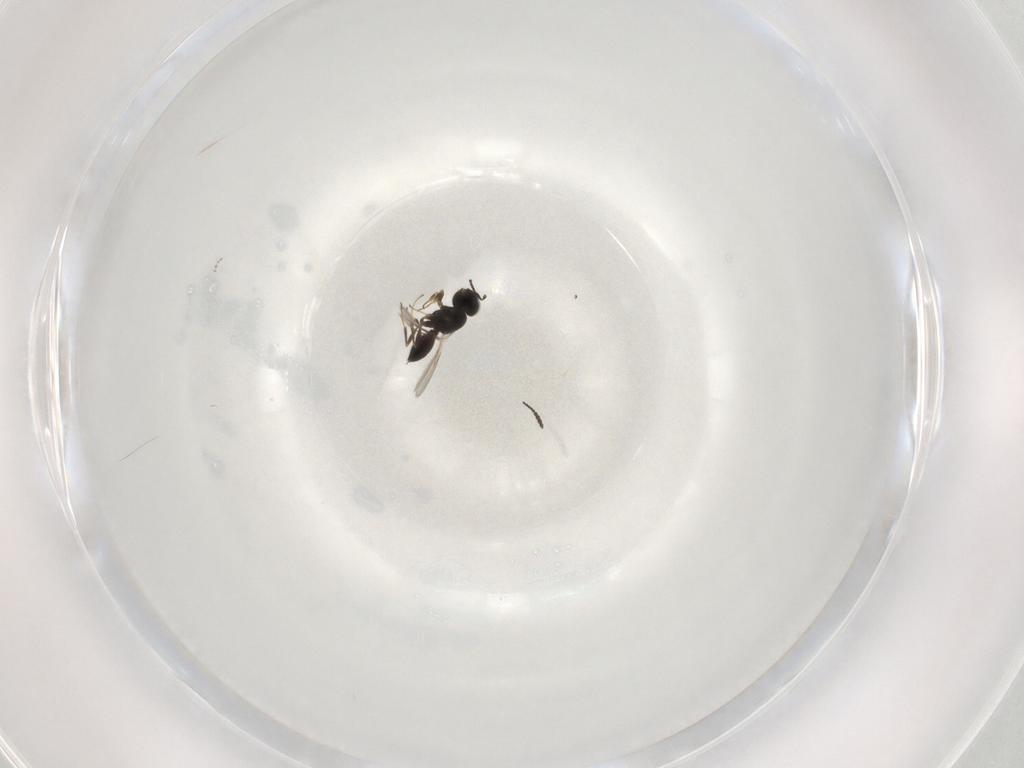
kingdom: Animalia
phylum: Arthropoda
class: Insecta
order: Hymenoptera
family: Scelionidae
